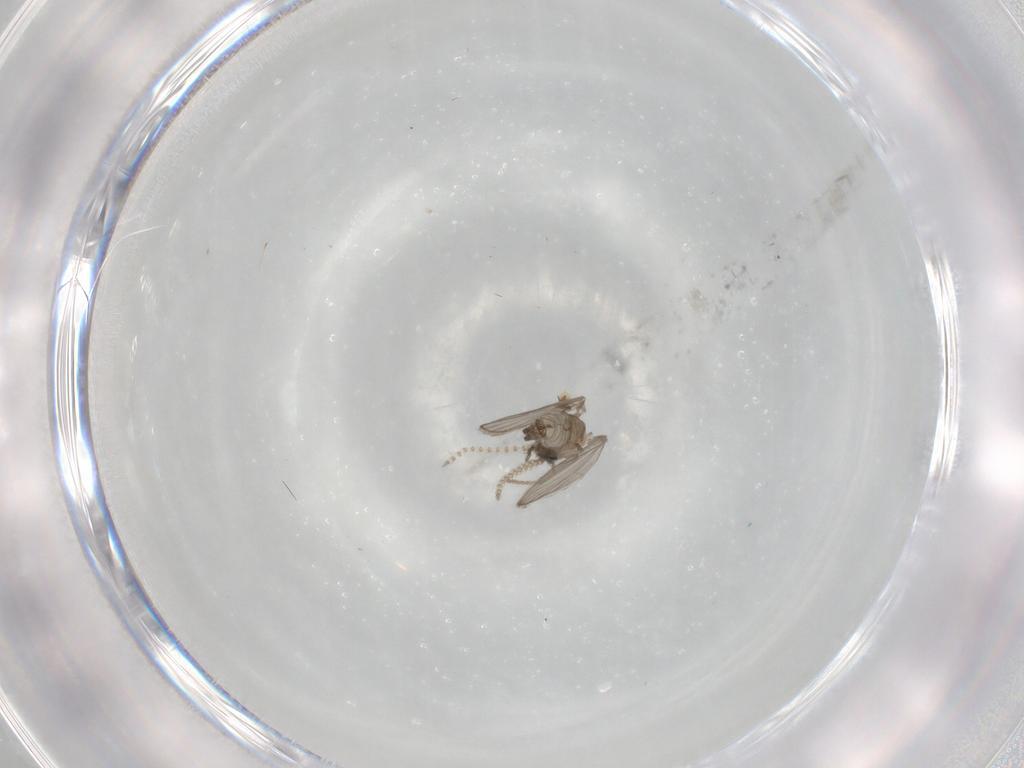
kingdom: Animalia
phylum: Arthropoda
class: Insecta
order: Diptera
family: Psychodidae
